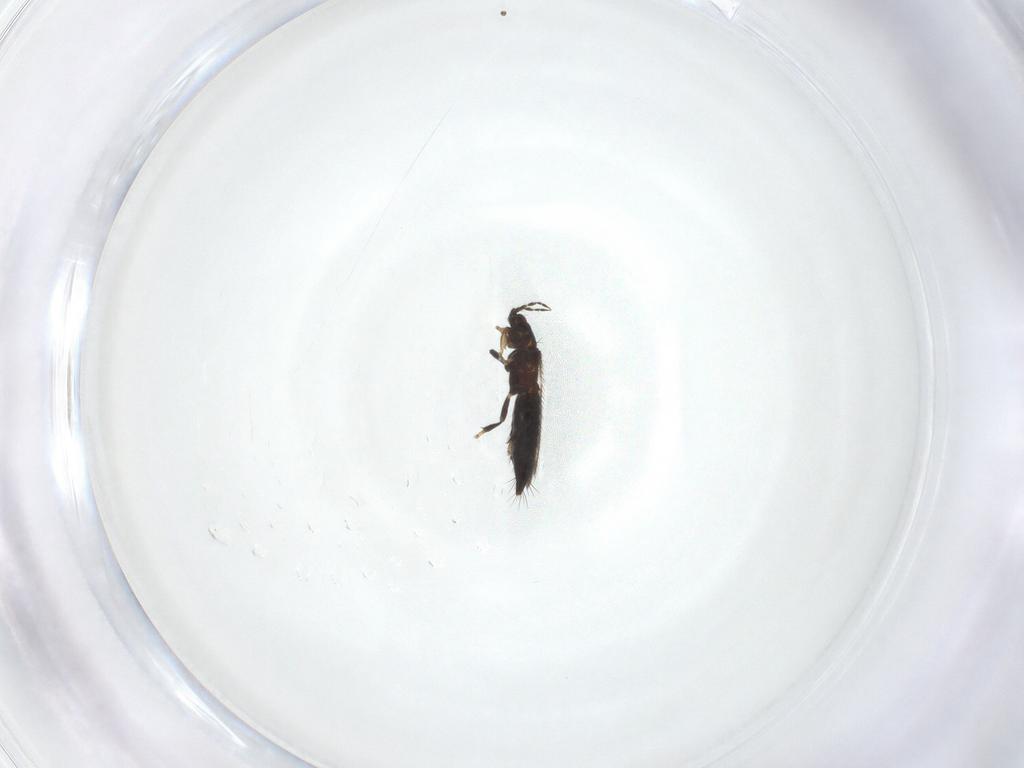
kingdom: Animalia
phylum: Arthropoda
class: Insecta
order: Thysanoptera
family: Thripidae
